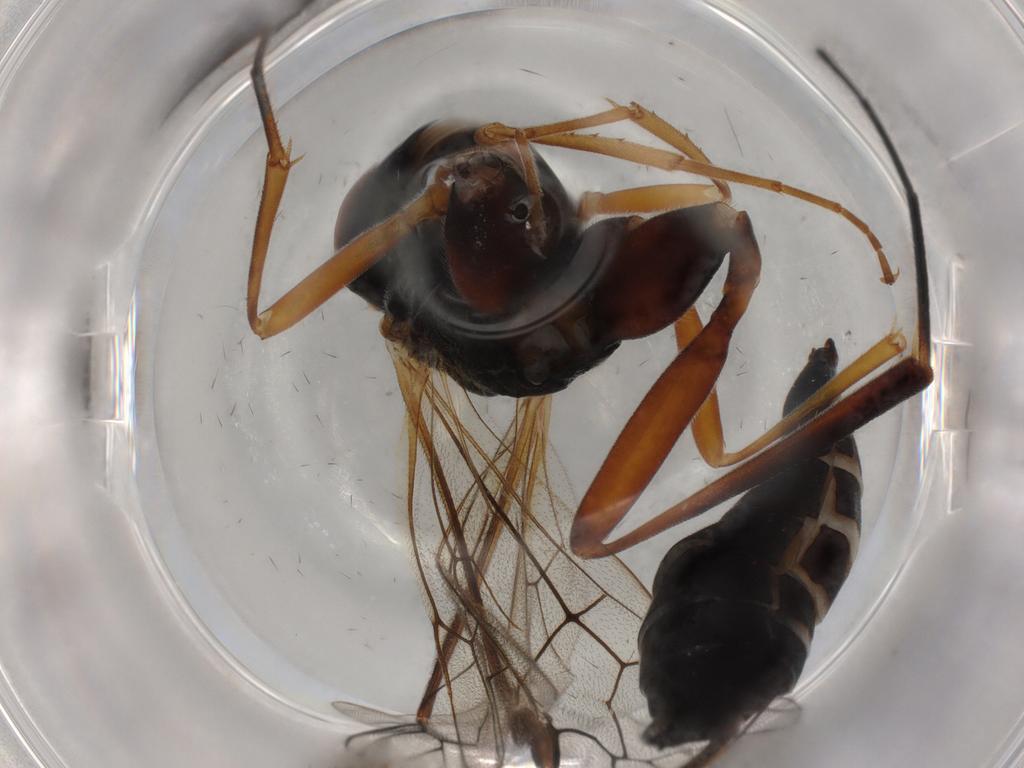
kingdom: Animalia
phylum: Arthropoda
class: Insecta
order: Hymenoptera
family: Ichneumonidae
